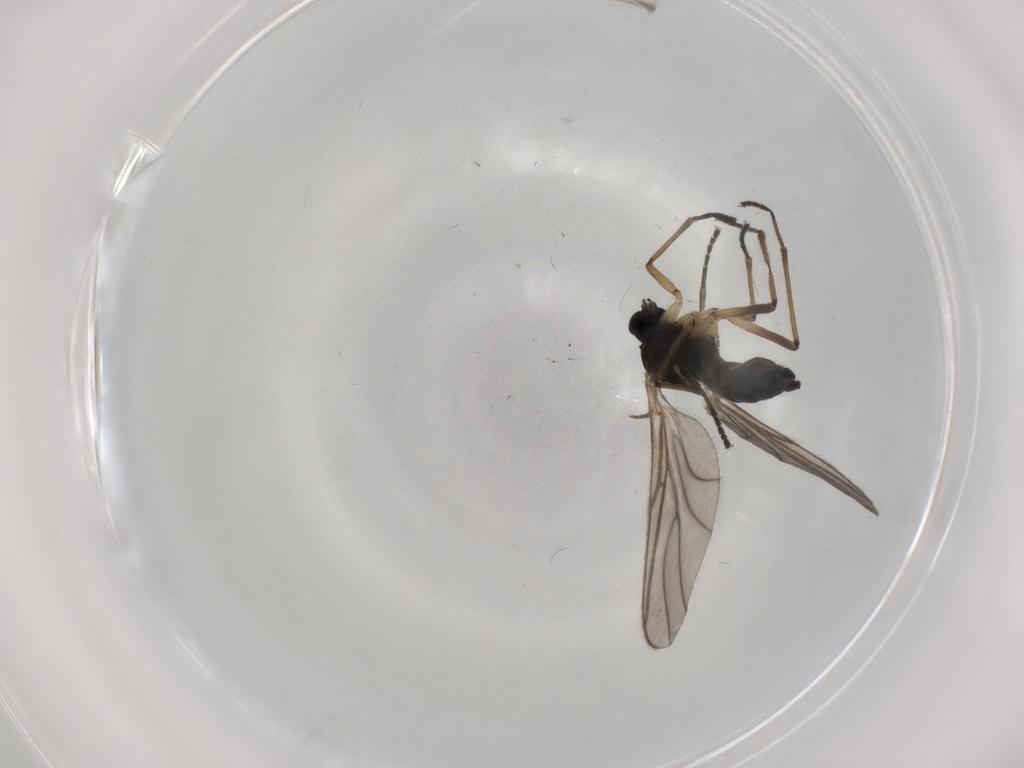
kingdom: Animalia
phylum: Arthropoda
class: Insecta
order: Diptera
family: Sciaridae
